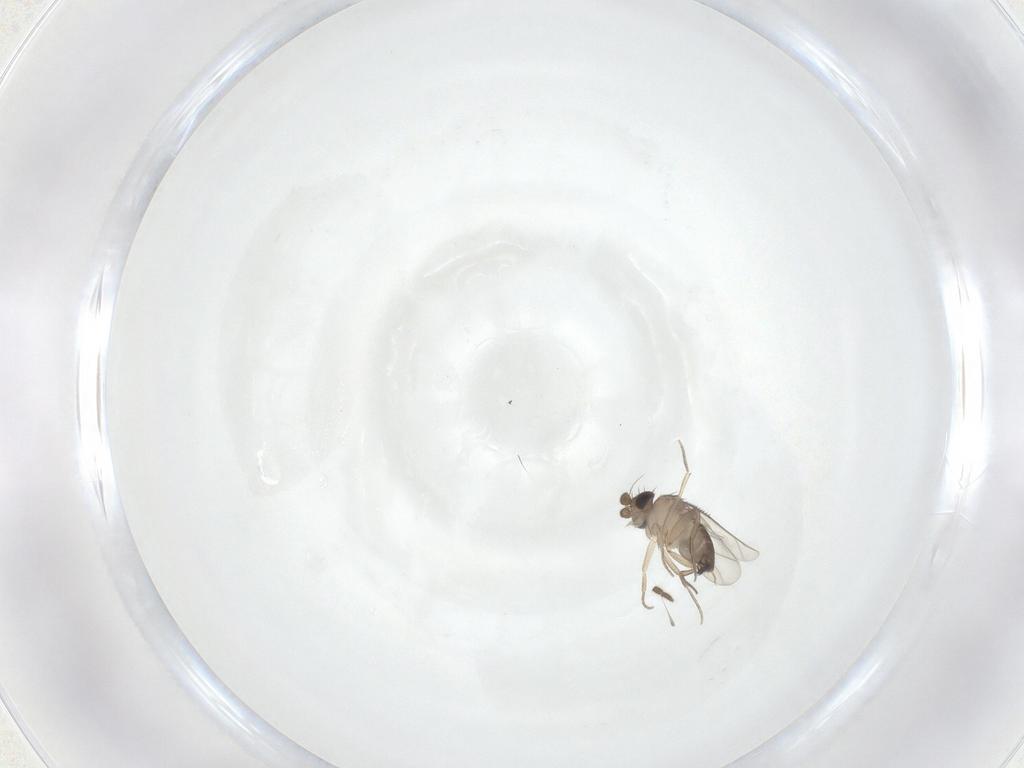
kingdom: Animalia
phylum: Arthropoda
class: Insecta
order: Diptera
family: Phoridae
